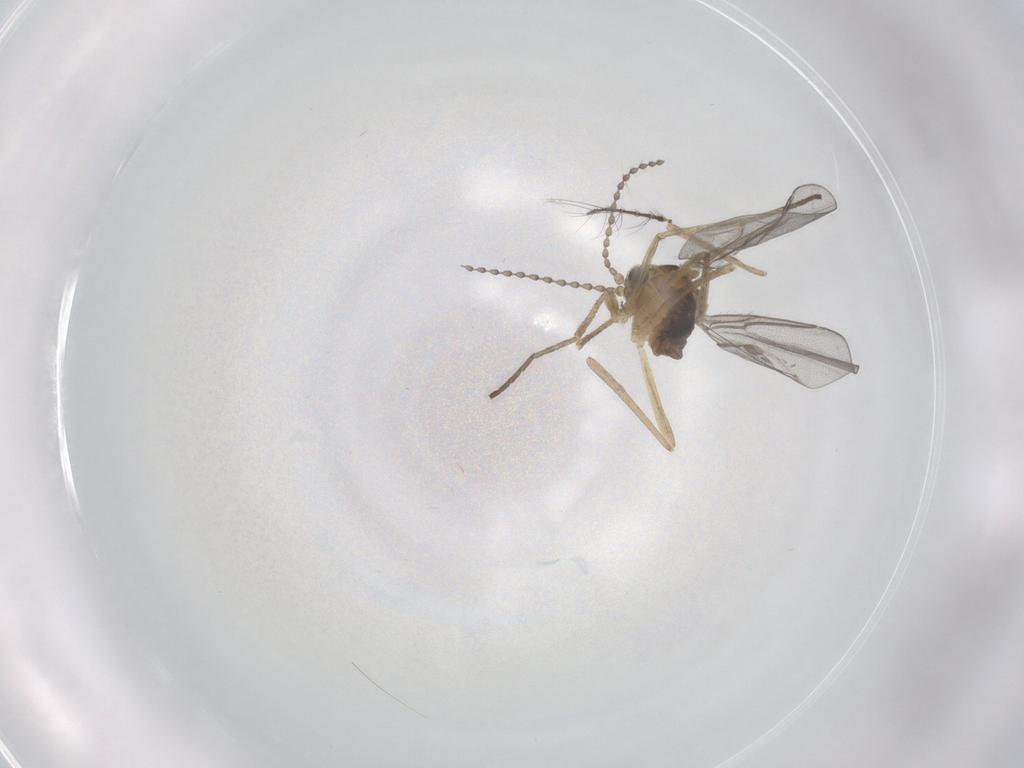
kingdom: Animalia
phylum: Arthropoda
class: Insecta
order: Diptera
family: Cecidomyiidae
